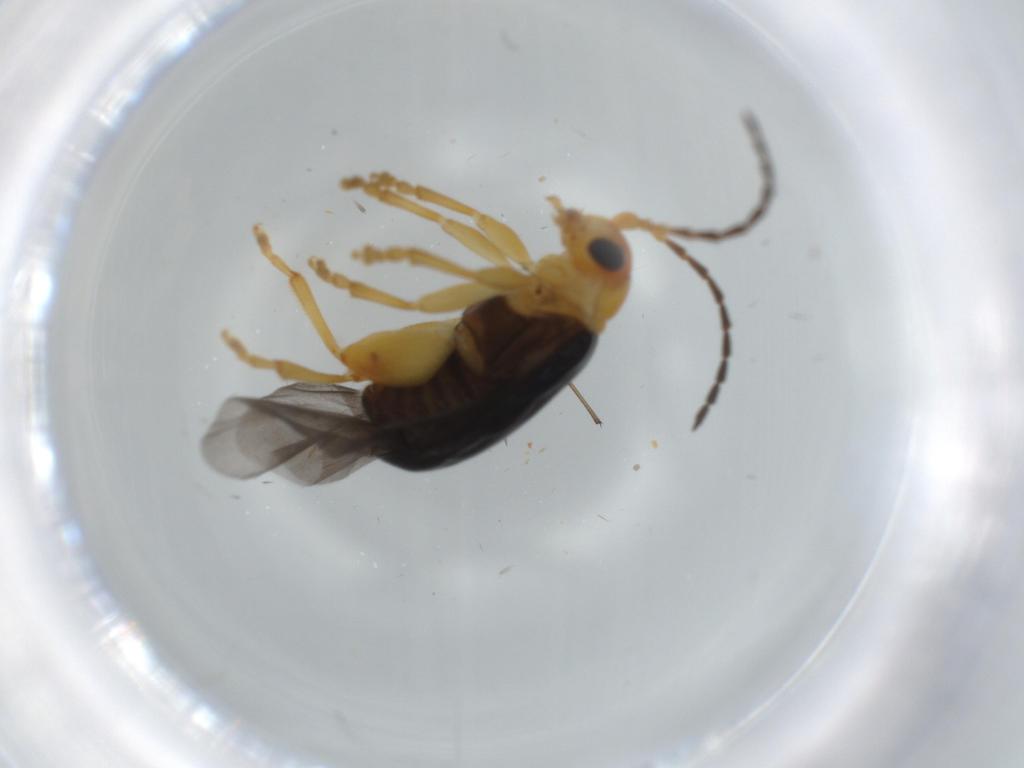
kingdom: Animalia
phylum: Arthropoda
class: Insecta
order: Coleoptera
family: Chrysomelidae
